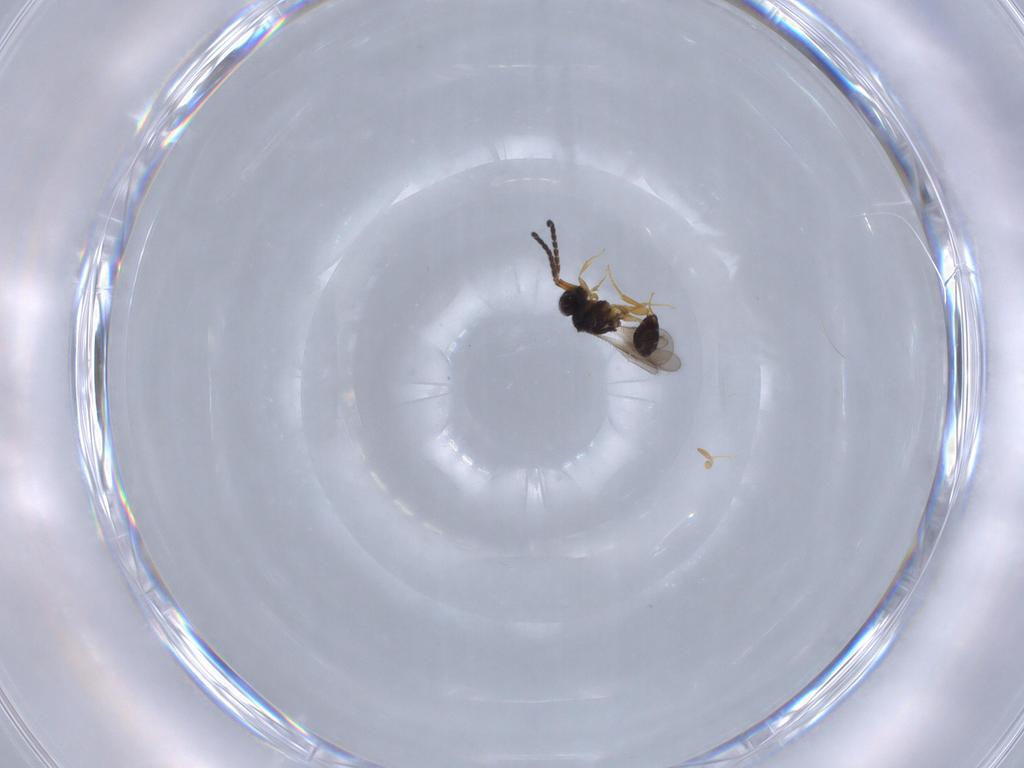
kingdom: Animalia
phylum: Arthropoda
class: Insecta
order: Hymenoptera
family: Ceraphronidae
